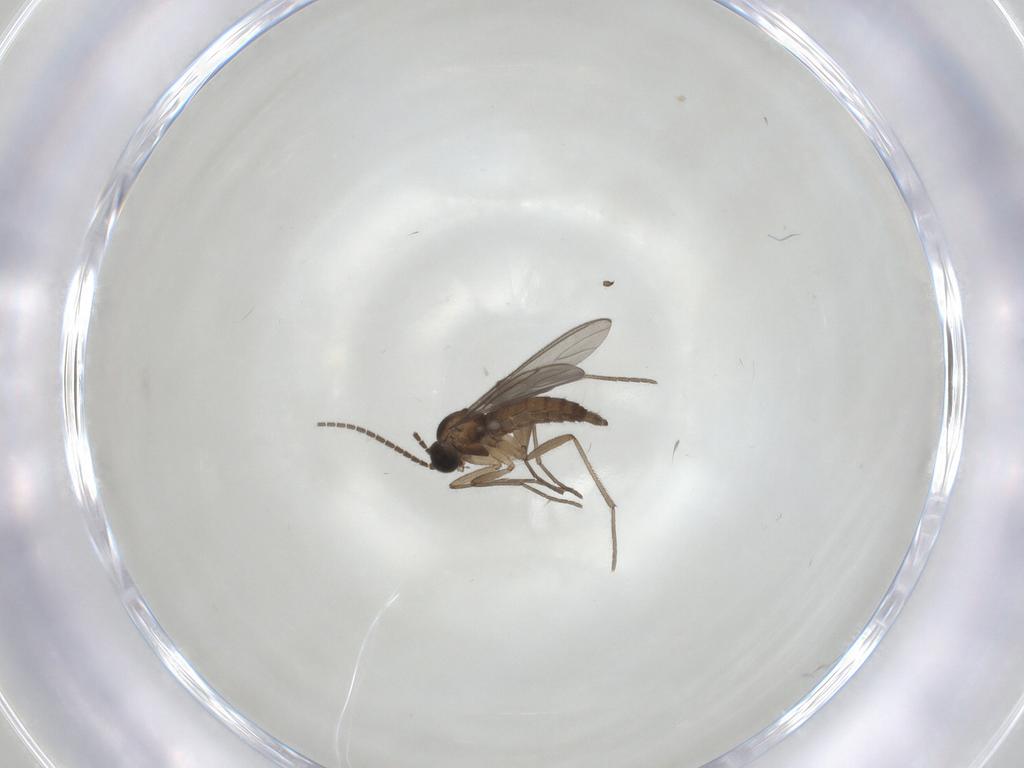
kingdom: Animalia
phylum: Arthropoda
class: Insecta
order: Diptera
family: Sciaridae
